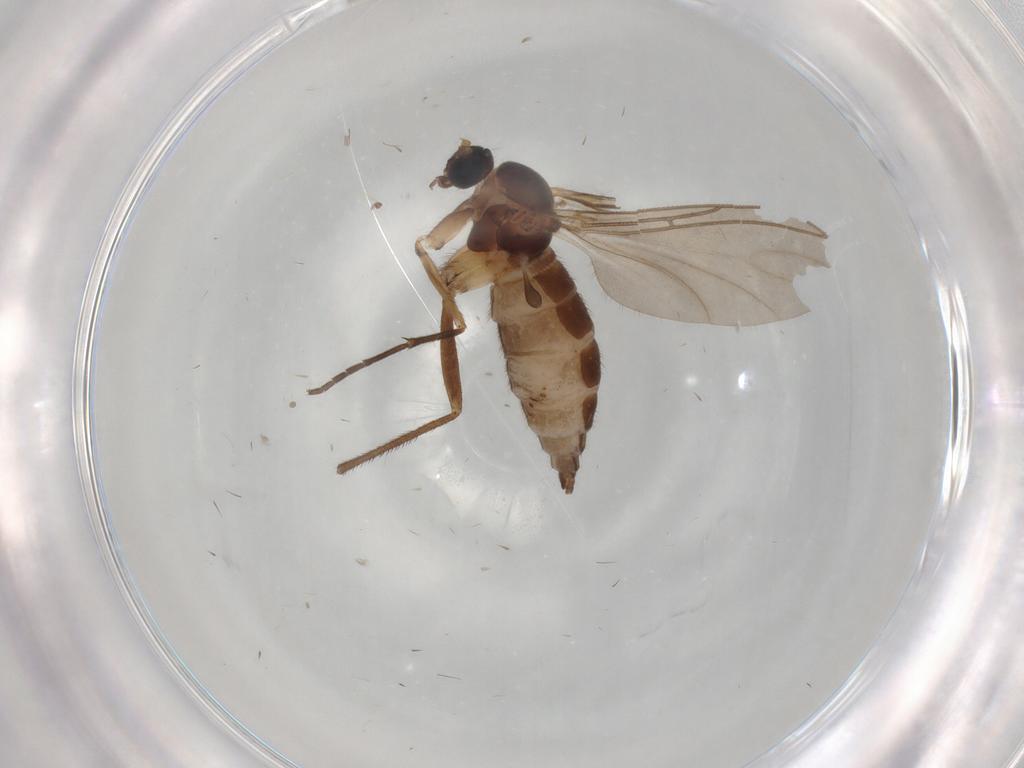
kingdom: Animalia
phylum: Arthropoda
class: Insecta
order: Diptera
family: Sciaridae
